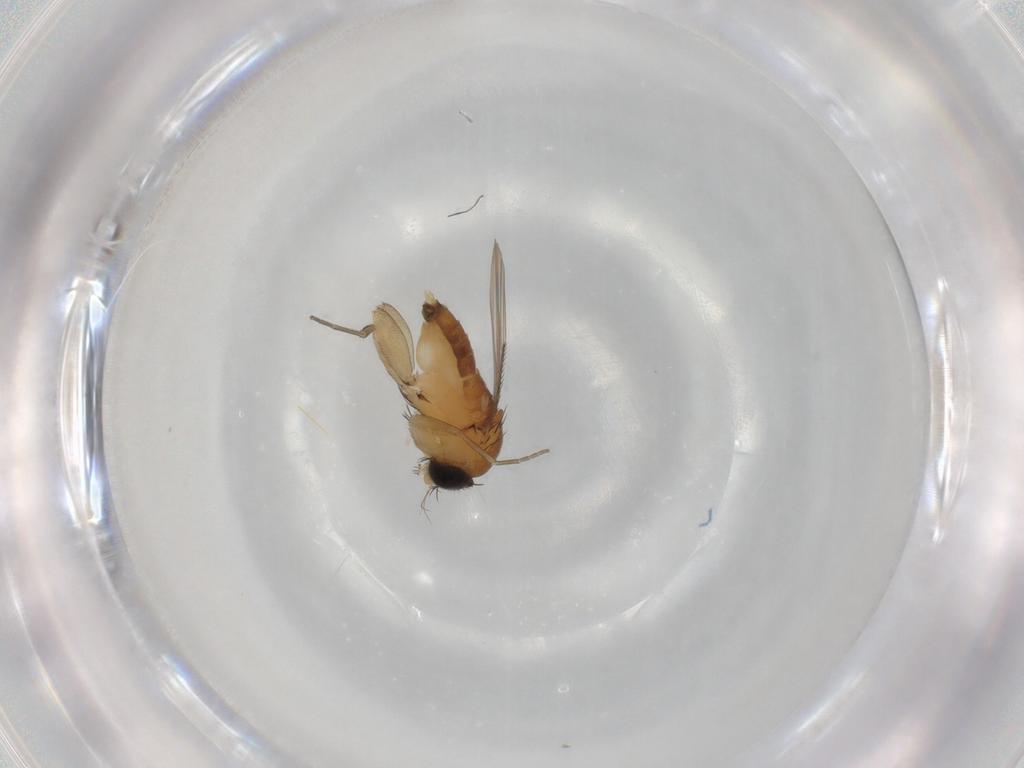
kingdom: Animalia
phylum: Arthropoda
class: Insecta
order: Diptera
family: Phoridae
